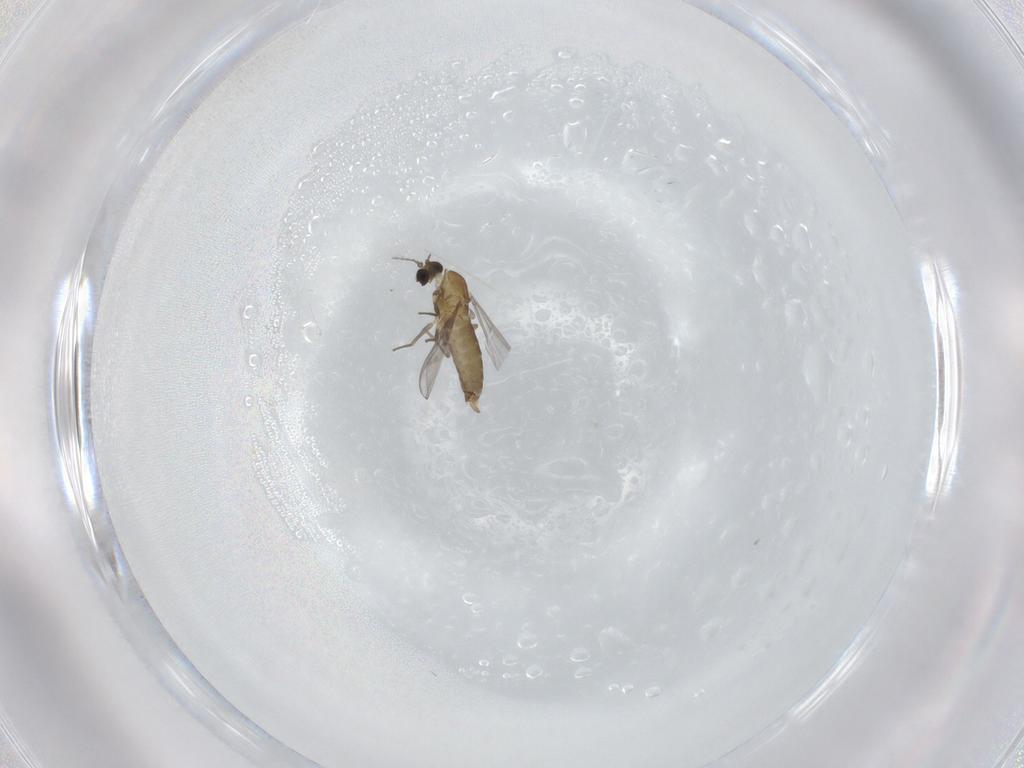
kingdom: Animalia
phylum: Arthropoda
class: Insecta
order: Diptera
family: Chironomidae
